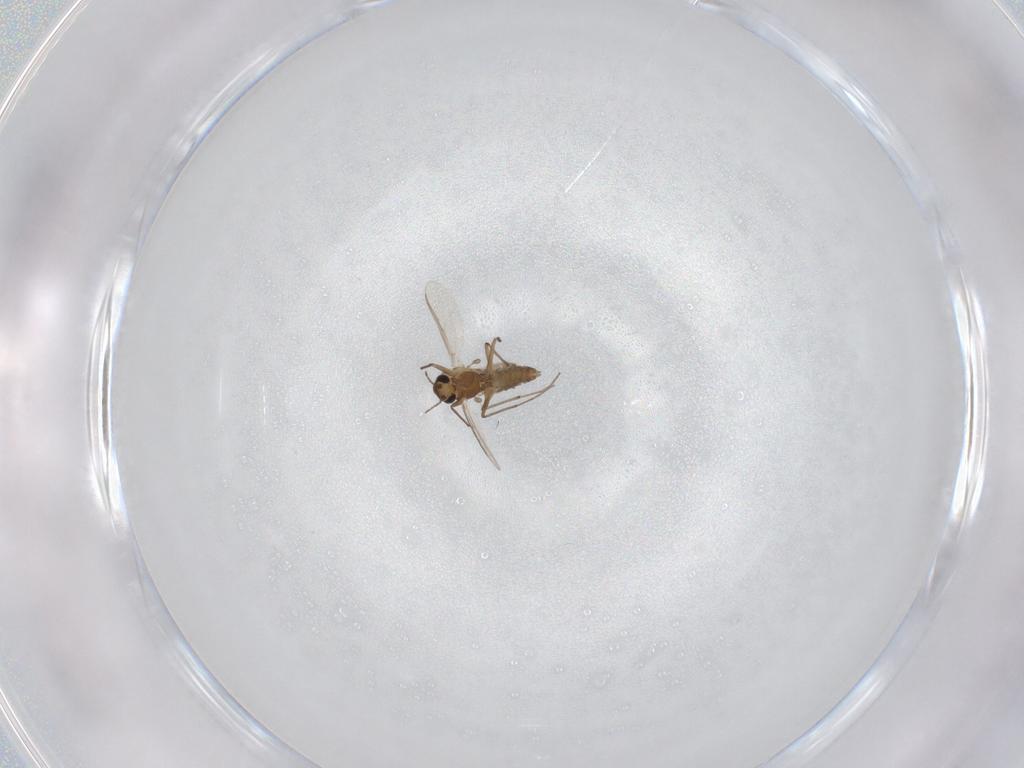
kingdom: Animalia
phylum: Arthropoda
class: Insecta
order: Diptera
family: Chironomidae
